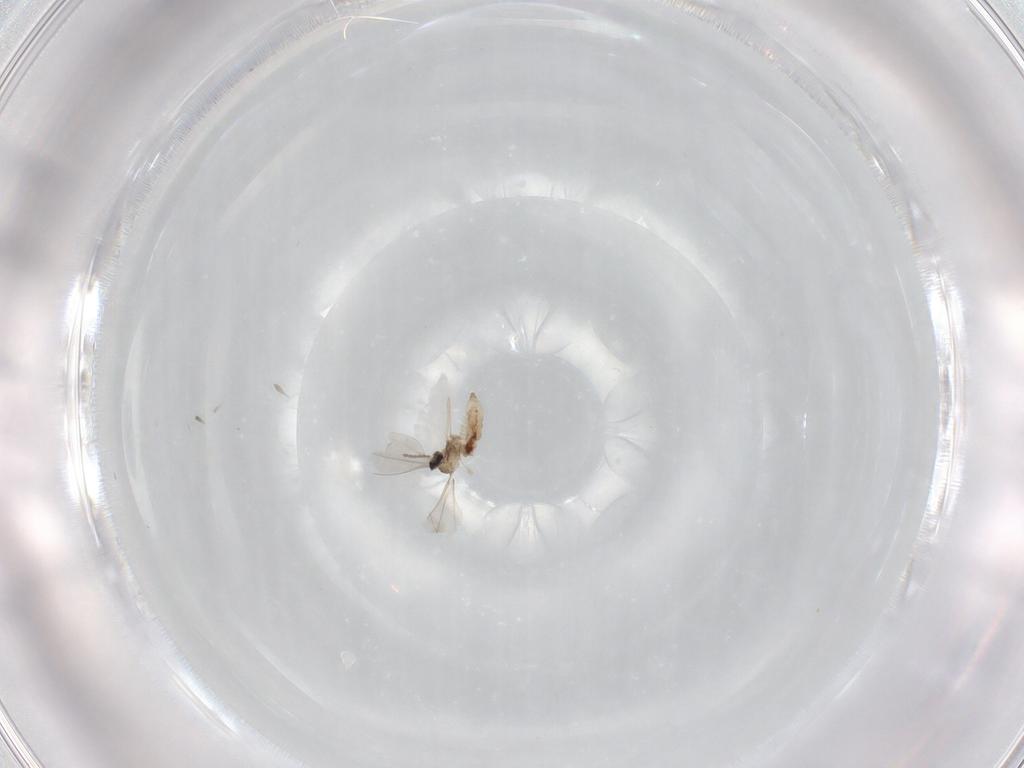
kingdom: Animalia
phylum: Arthropoda
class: Insecta
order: Diptera
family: Cecidomyiidae
